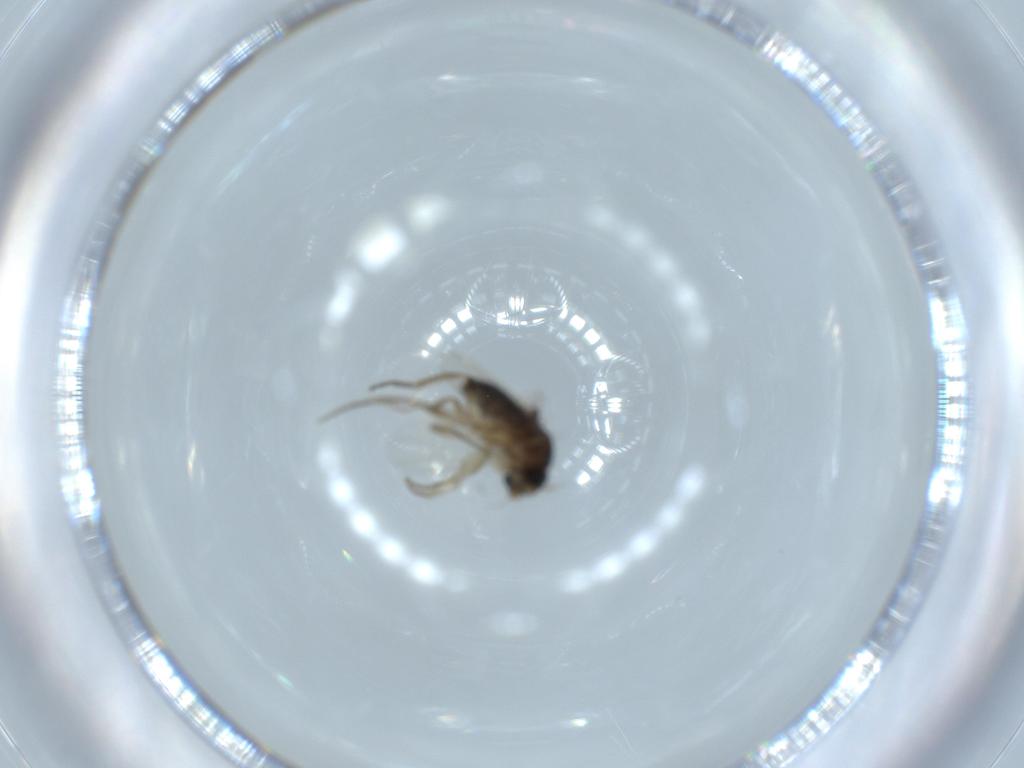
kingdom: Animalia
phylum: Arthropoda
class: Insecta
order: Diptera
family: Phoridae
